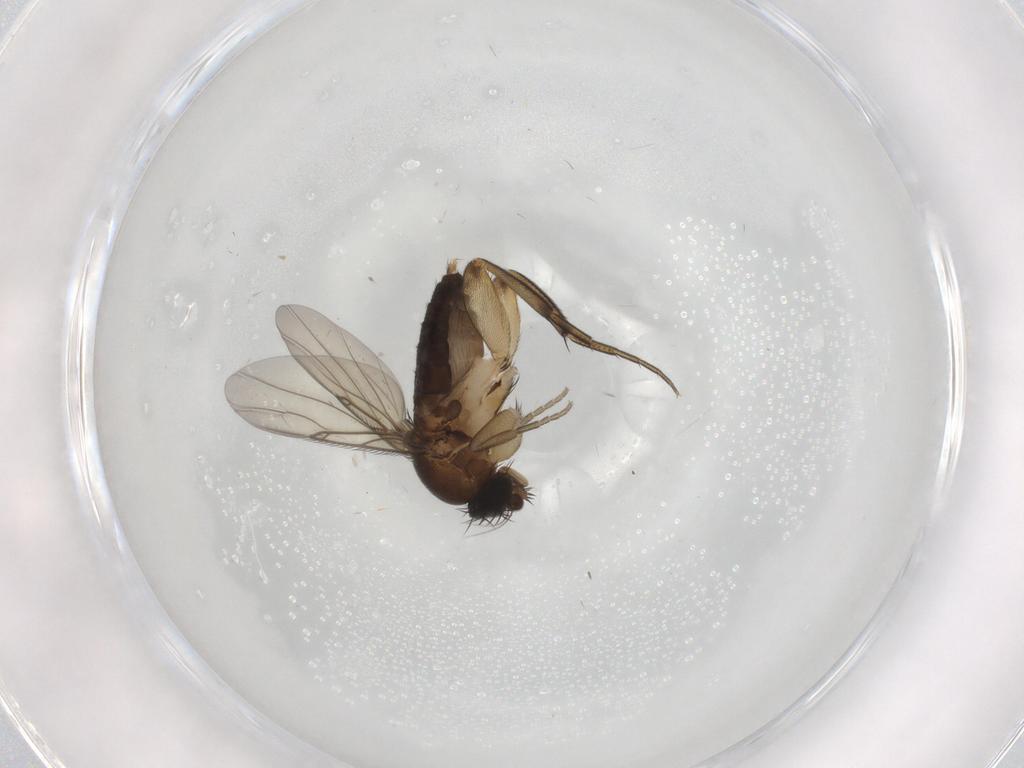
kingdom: Animalia
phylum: Arthropoda
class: Insecta
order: Diptera
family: Phoridae
